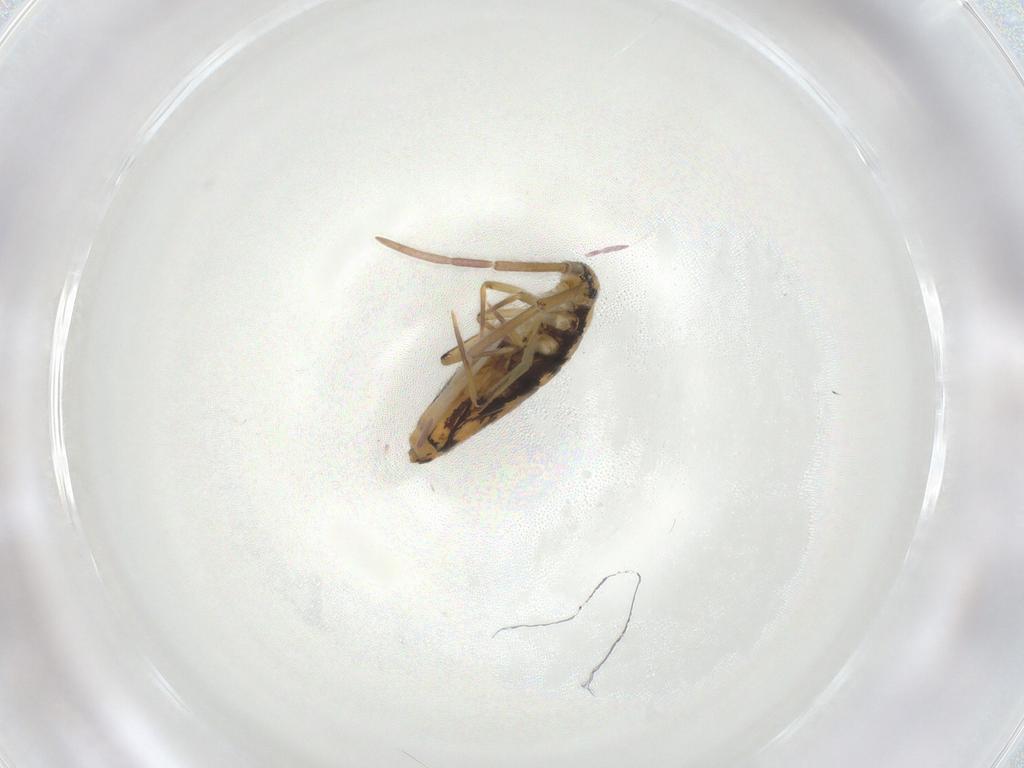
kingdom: Animalia
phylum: Arthropoda
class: Collembola
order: Entomobryomorpha
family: Entomobryidae
